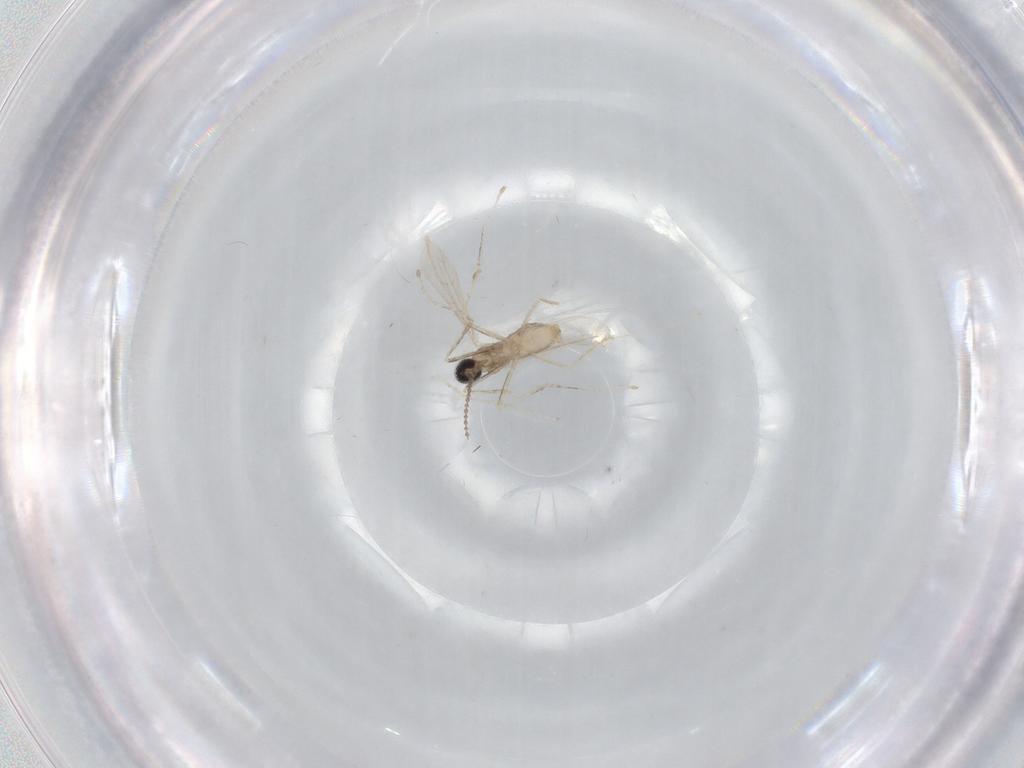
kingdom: Animalia
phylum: Arthropoda
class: Insecta
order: Diptera
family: Cecidomyiidae
